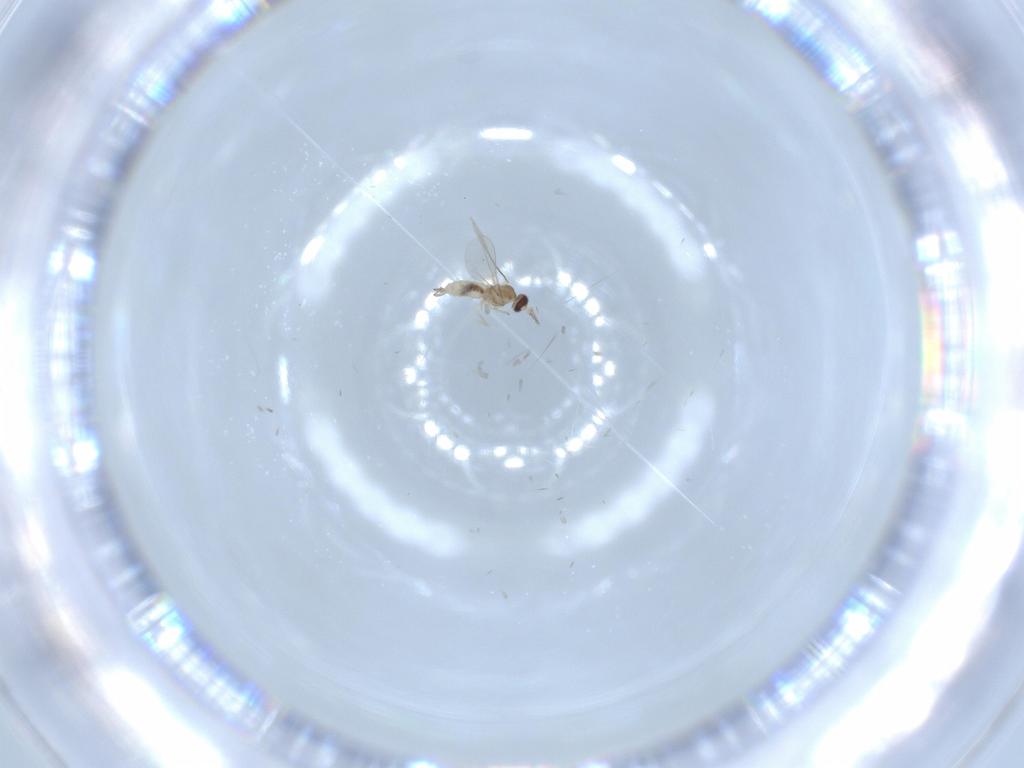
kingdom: Animalia
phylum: Arthropoda
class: Insecta
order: Diptera
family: Cecidomyiidae
